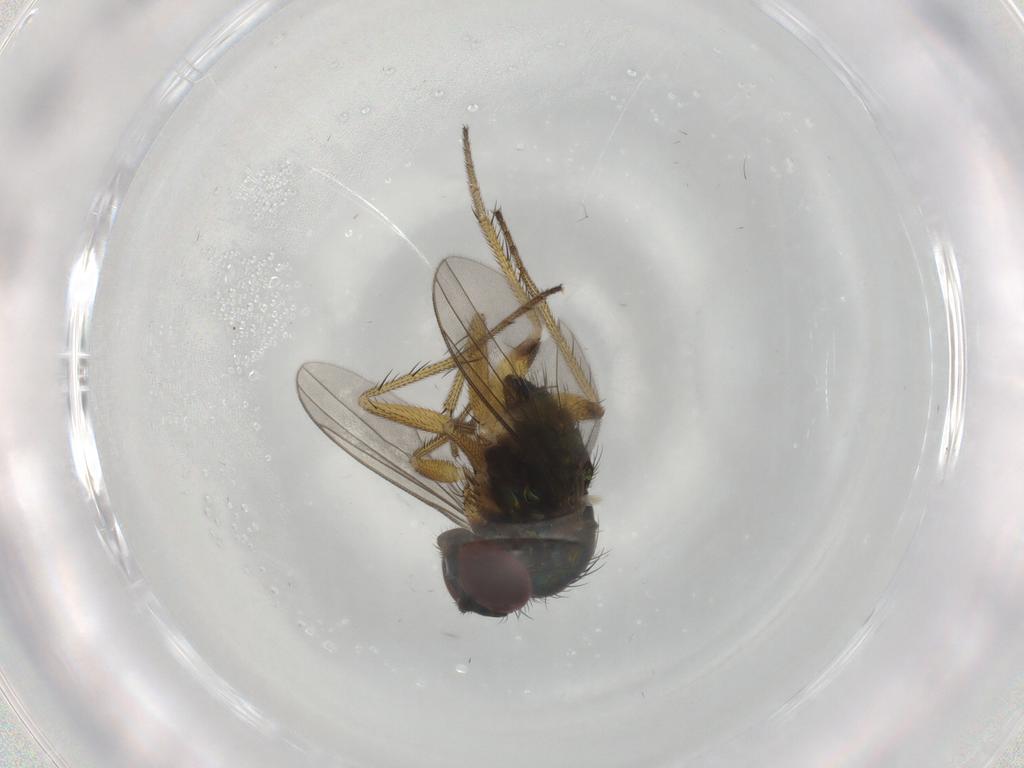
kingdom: Animalia
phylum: Arthropoda
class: Insecta
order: Diptera
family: Dolichopodidae
